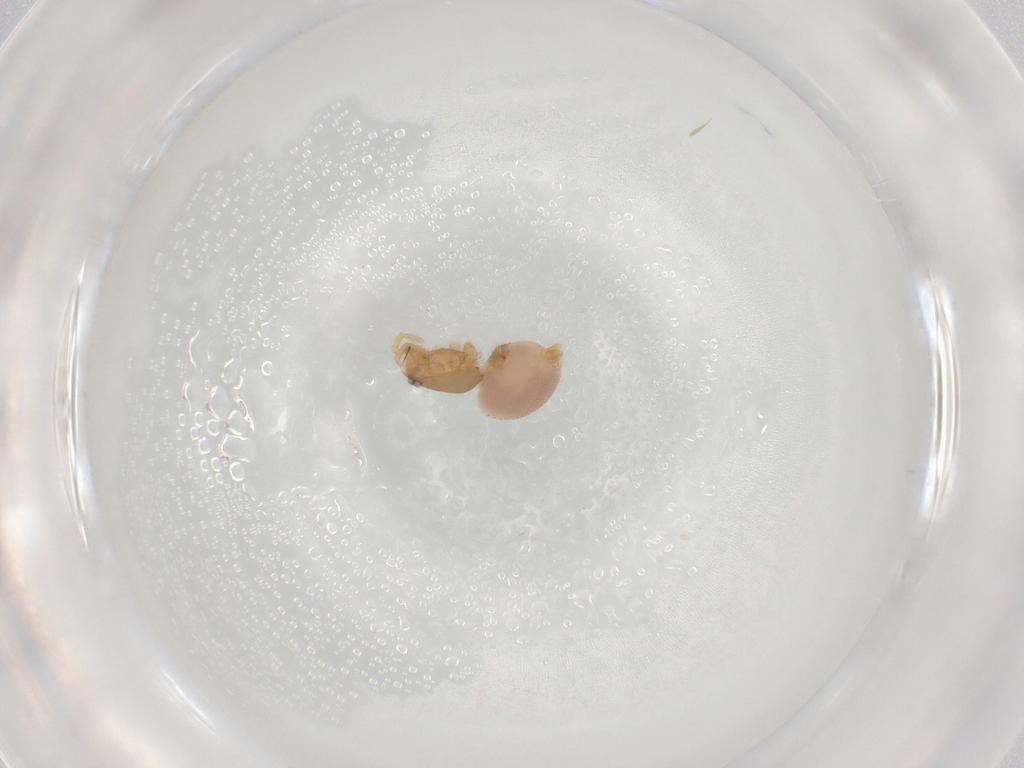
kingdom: Animalia
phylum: Arthropoda
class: Arachnida
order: Araneae
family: Oonopidae
